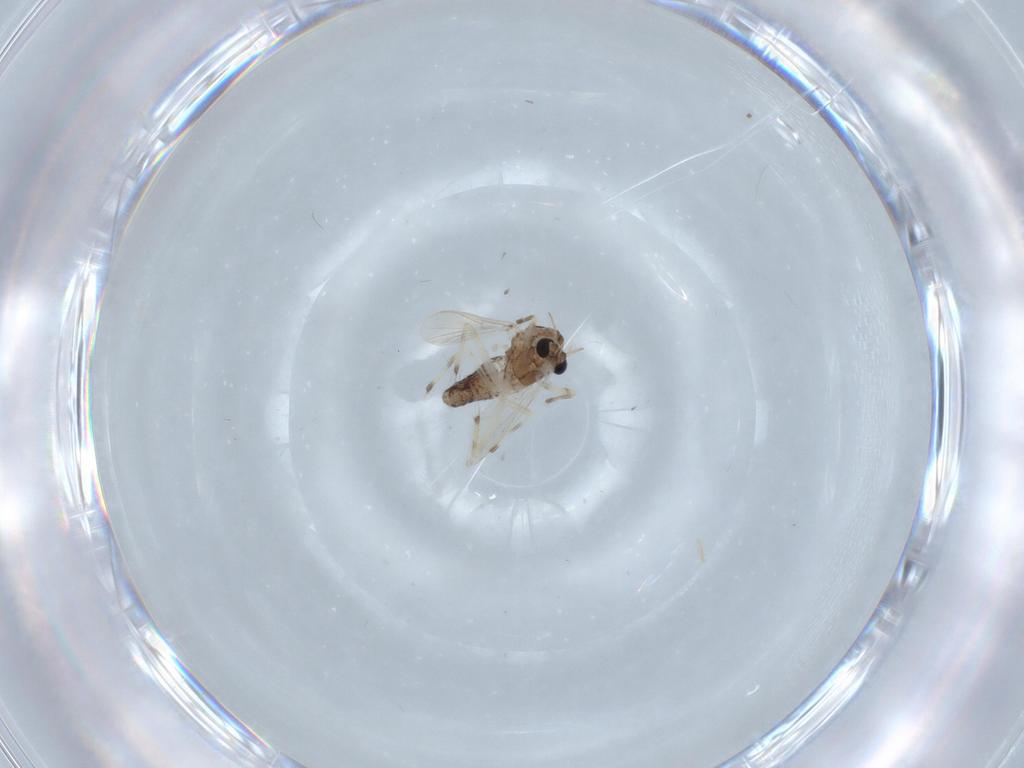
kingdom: Animalia
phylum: Arthropoda
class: Insecta
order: Diptera
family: Chironomidae
